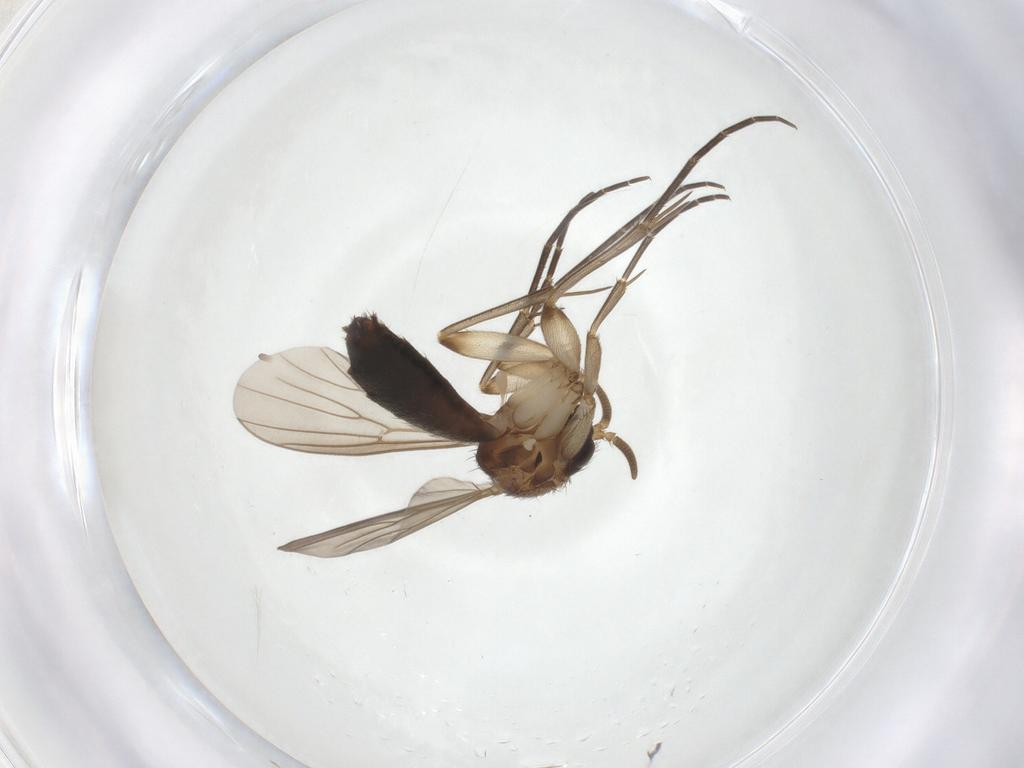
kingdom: Animalia
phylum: Arthropoda
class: Insecta
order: Diptera
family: Mycetophilidae
